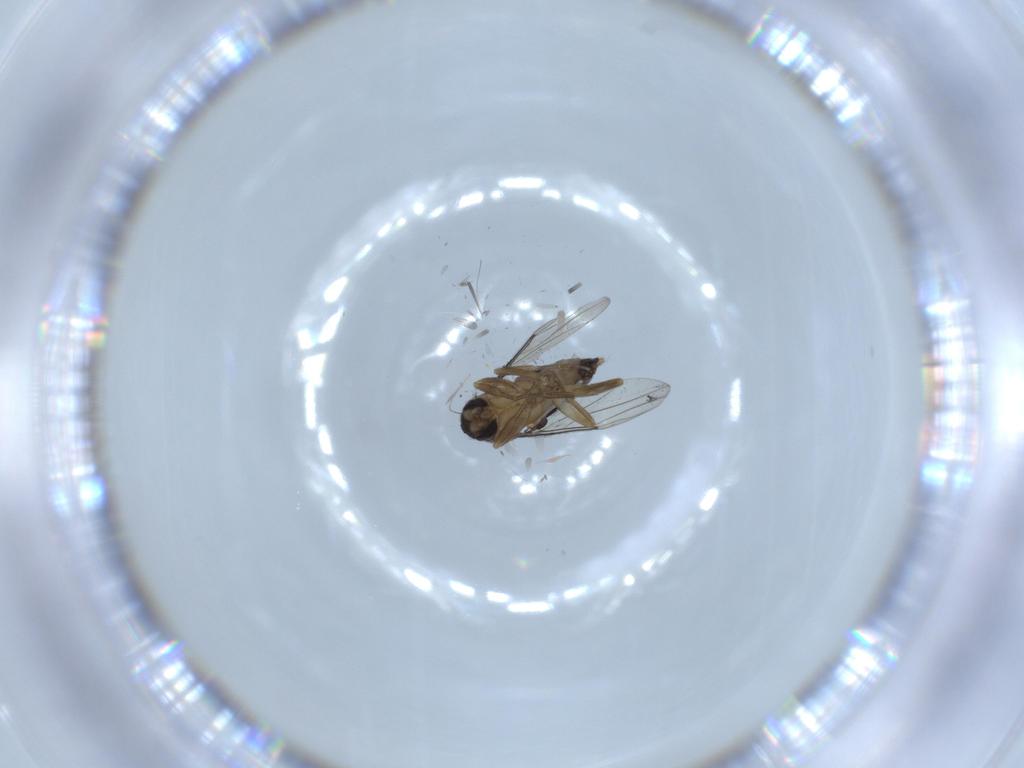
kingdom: Animalia
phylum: Arthropoda
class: Insecta
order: Diptera
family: Phoridae
